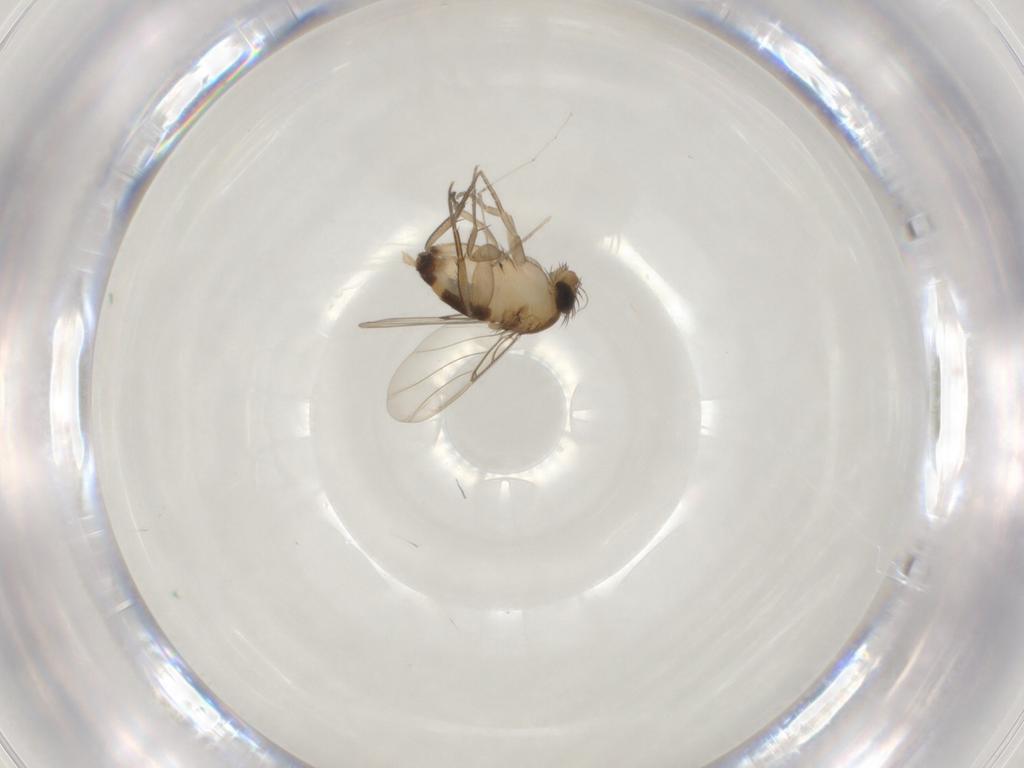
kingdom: Animalia
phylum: Arthropoda
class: Insecta
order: Diptera
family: Phoridae
